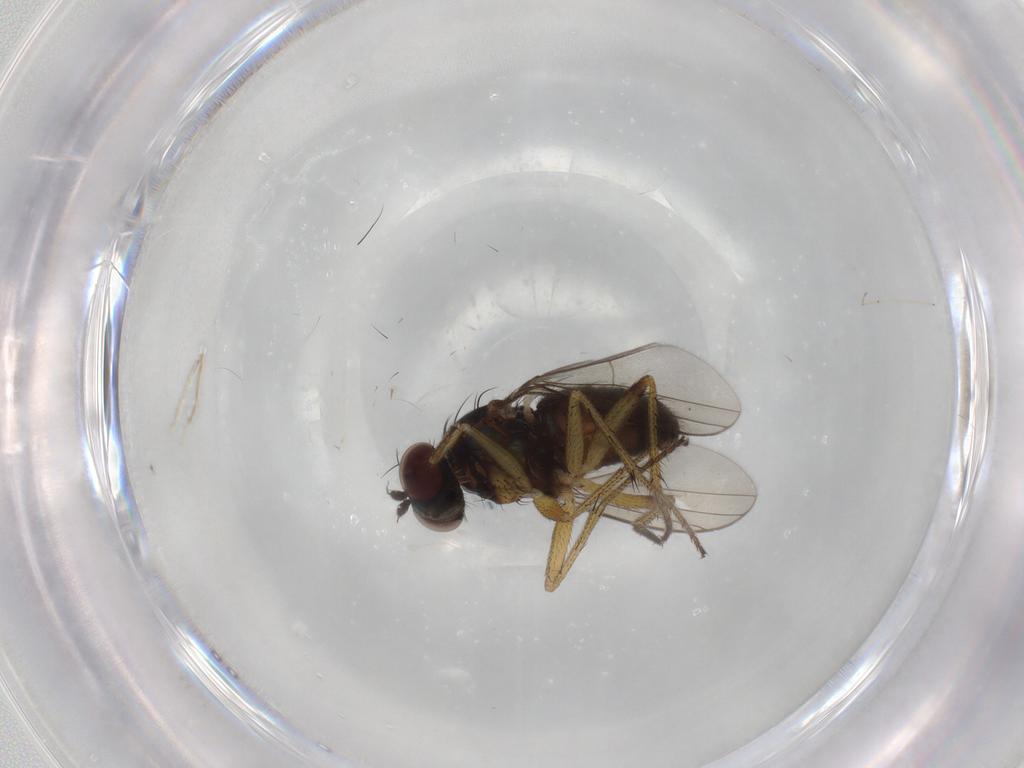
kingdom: Animalia
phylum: Arthropoda
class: Insecta
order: Diptera
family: Dolichopodidae
